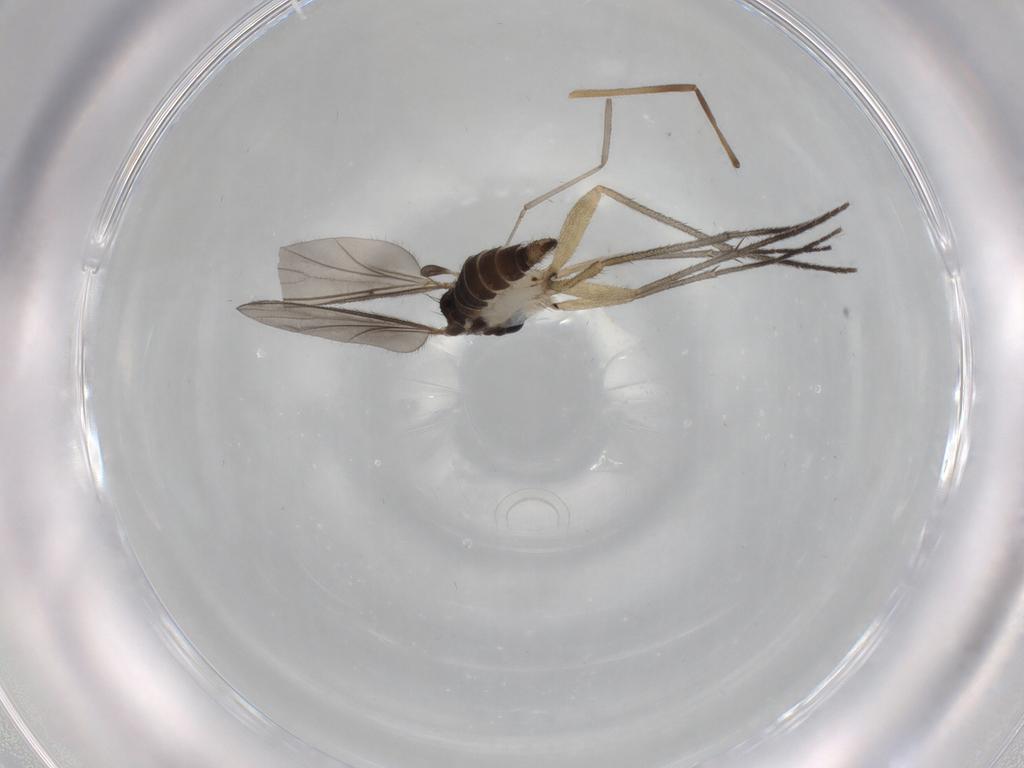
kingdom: Animalia
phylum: Arthropoda
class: Insecta
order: Diptera
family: Sciaridae
